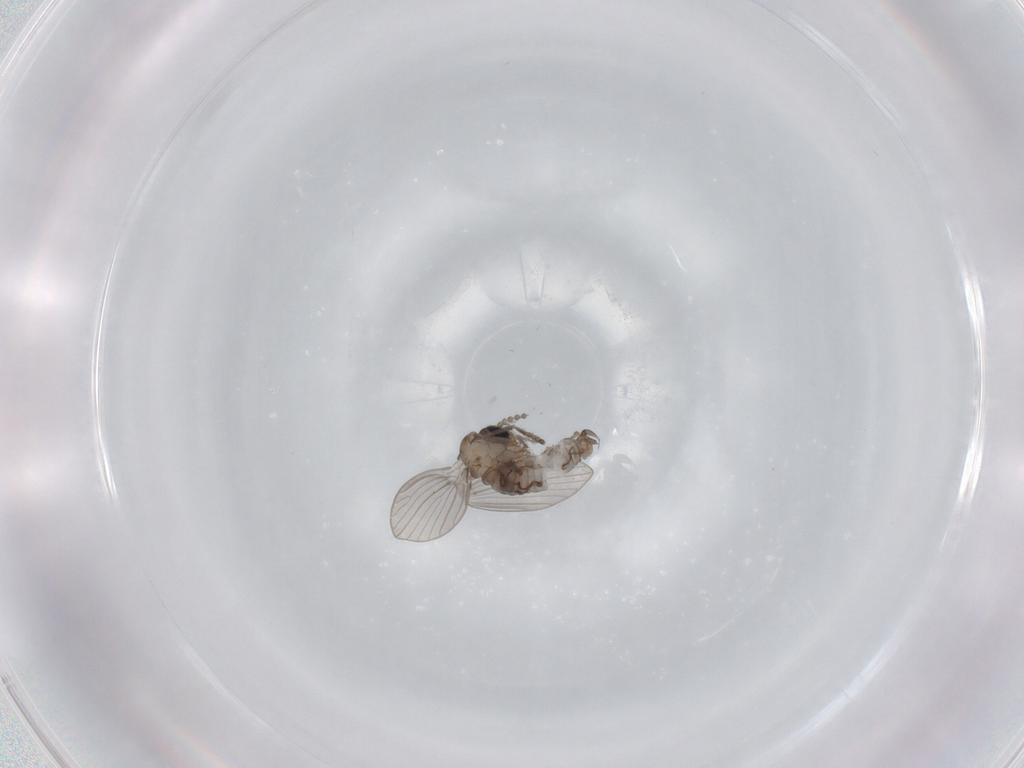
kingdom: Animalia
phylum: Arthropoda
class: Insecta
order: Diptera
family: Psychodidae
